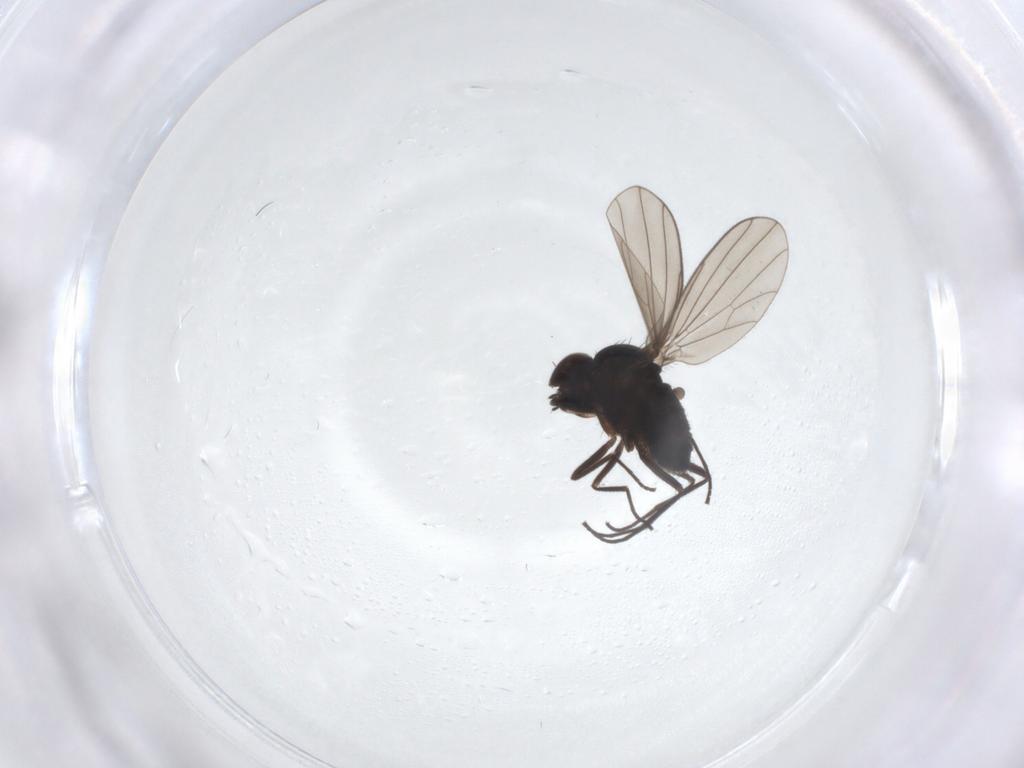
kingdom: Animalia
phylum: Arthropoda
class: Insecta
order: Diptera
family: Dolichopodidae
